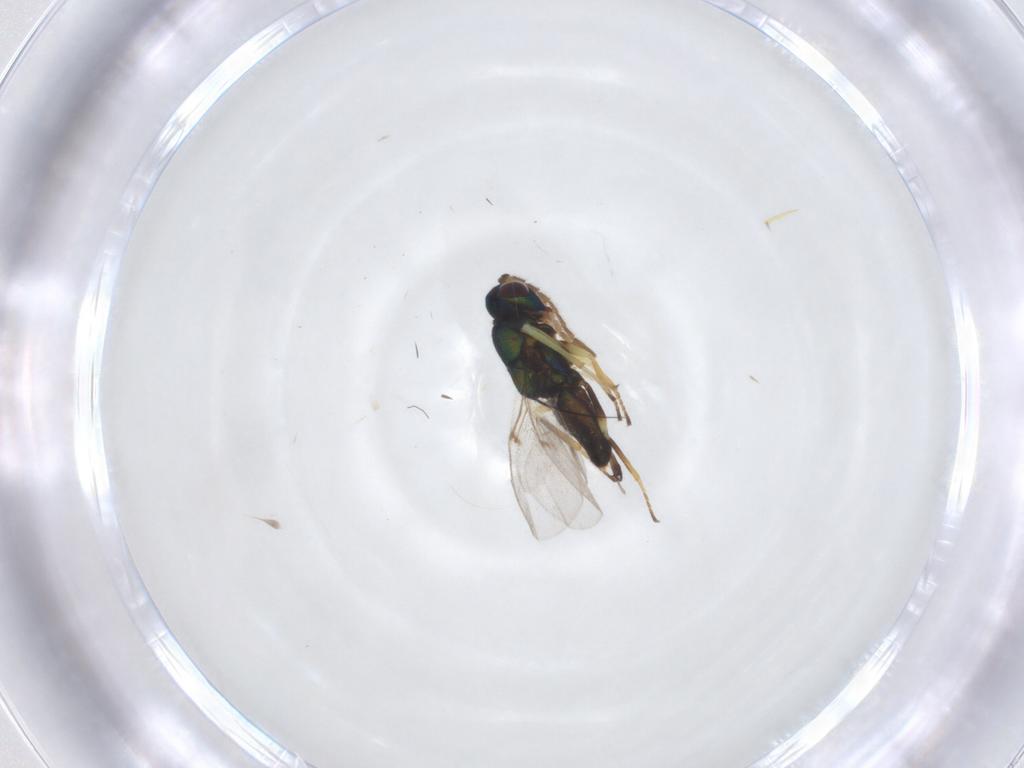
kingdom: Animalia
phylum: Arthropoda
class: Insecta
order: Hymenoptera
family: Encyrtidae
